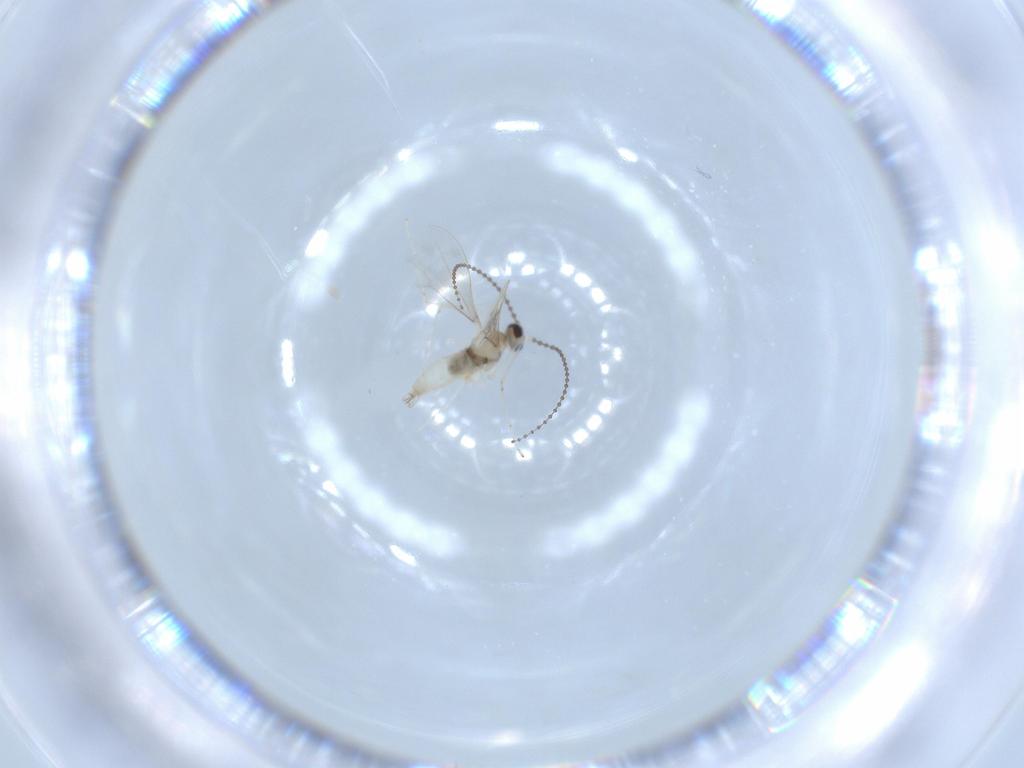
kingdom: Animalia
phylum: Arthropoda
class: Insecta
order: Diptera
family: Cecidomyiidae
